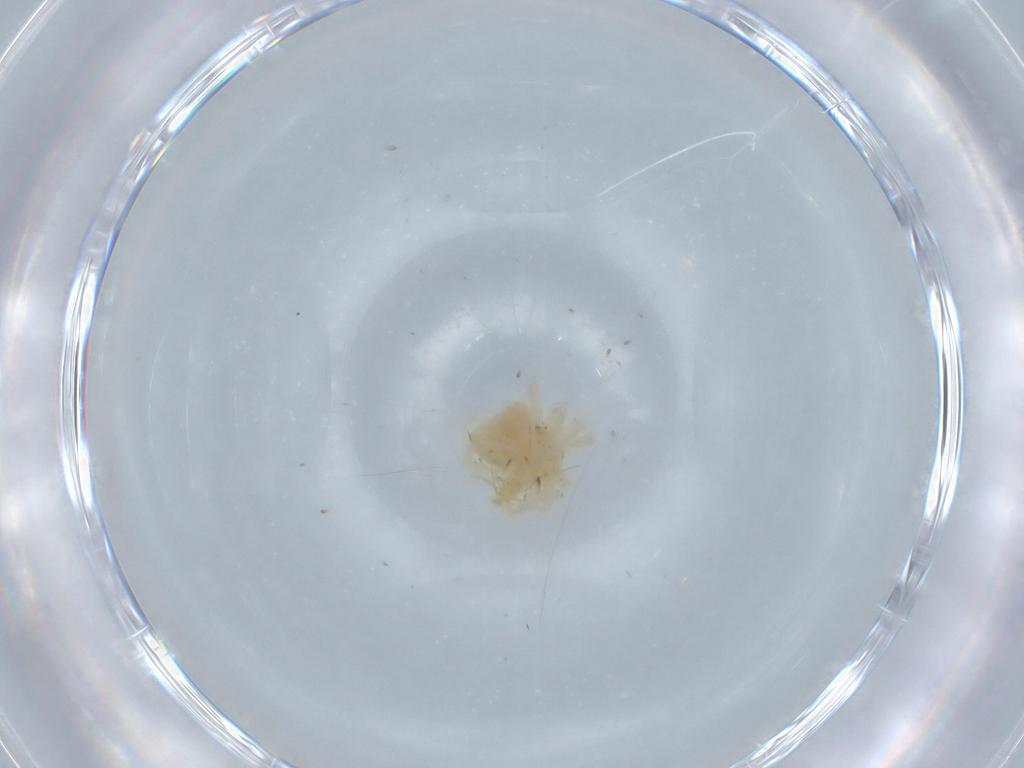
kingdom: Animalia
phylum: Arthropoda
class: Arachnida
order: Trombidiformes
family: Erythraeidae
